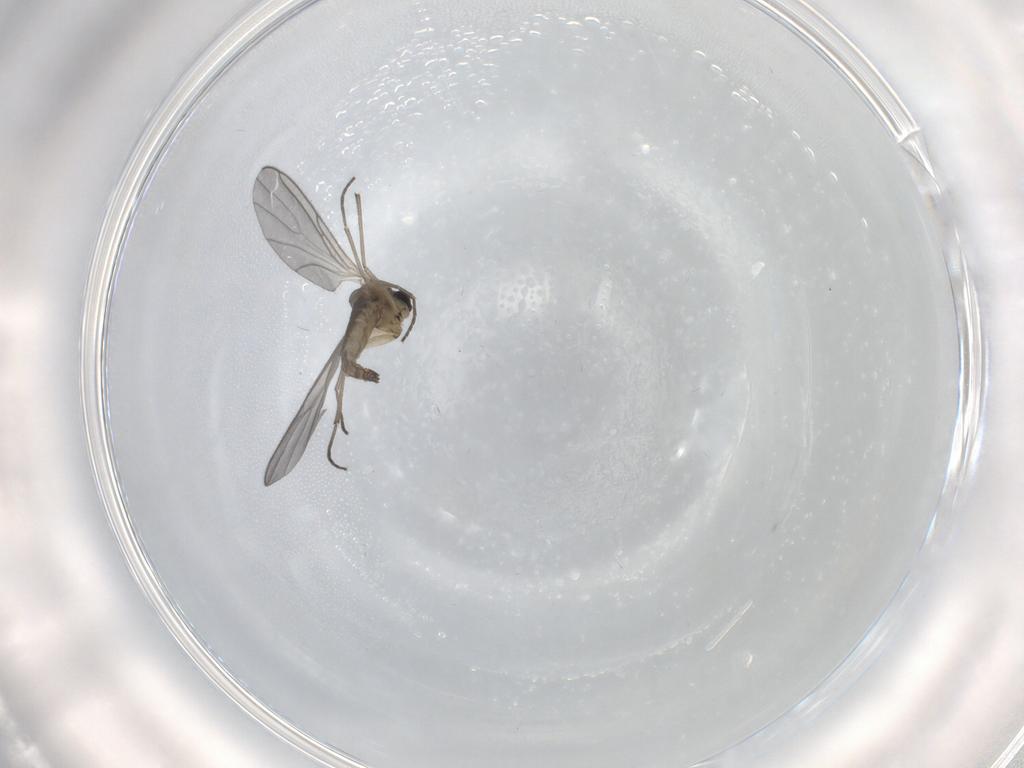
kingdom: Animalia
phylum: Arthropoda
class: Insecta
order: Diptera
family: Sciaridae
